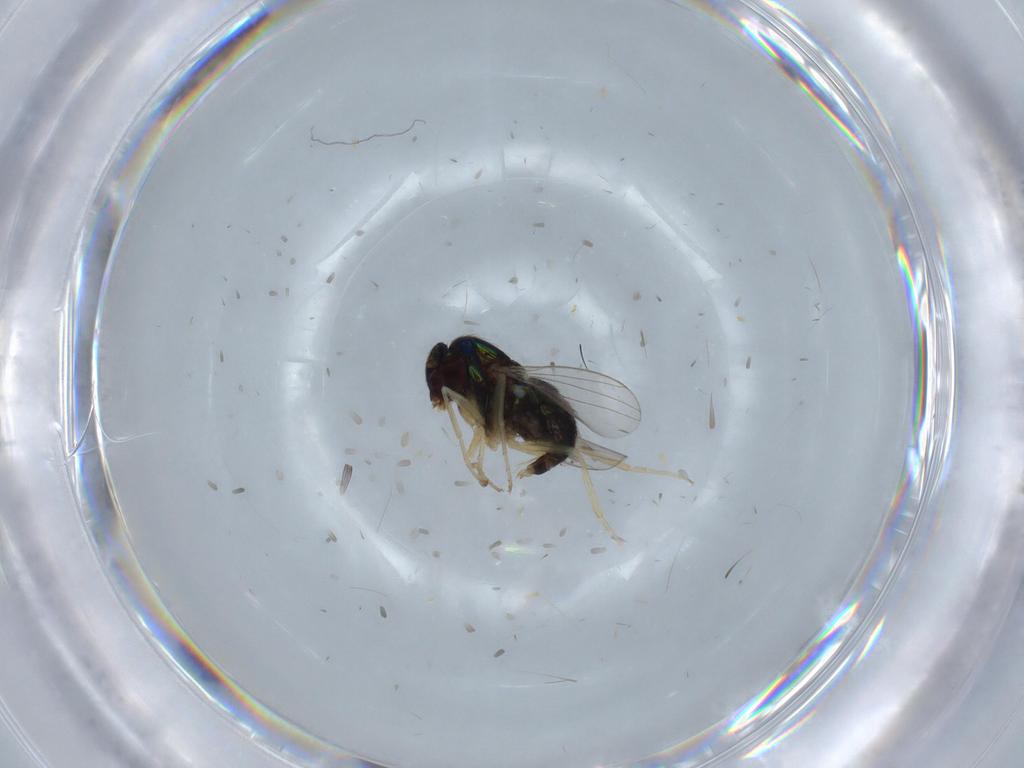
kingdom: Animalia
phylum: Arthropoda
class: Insecta
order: Diptera
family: Dolichopodidae
